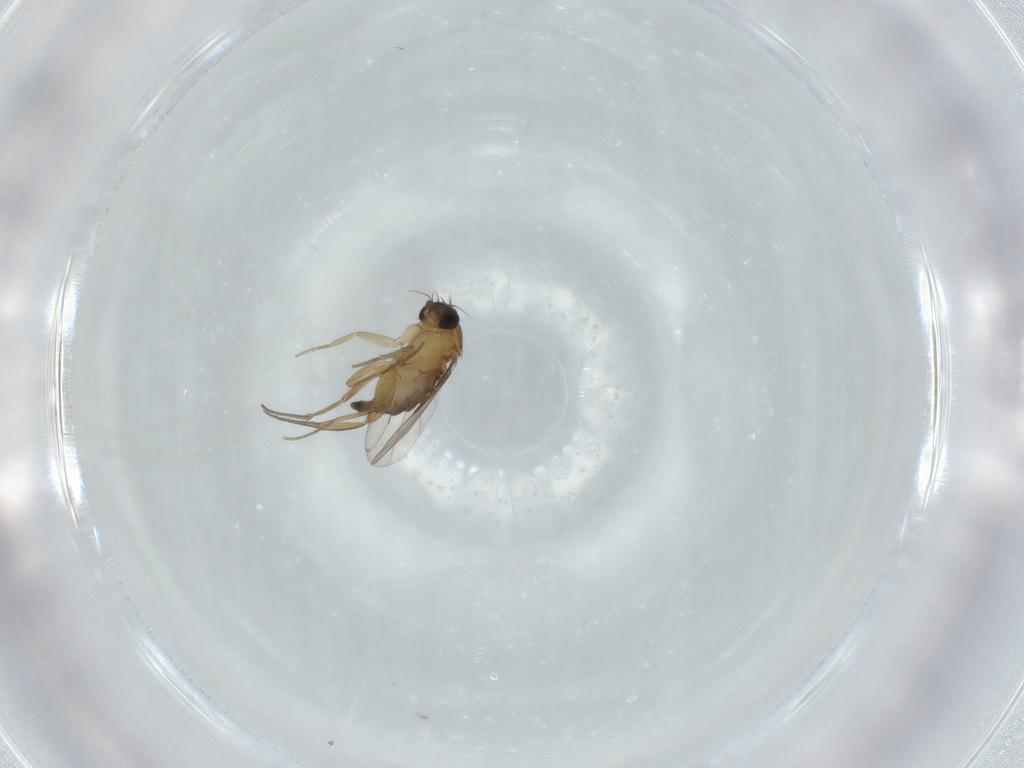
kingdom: Animalia
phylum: Arthropoda
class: Insecta
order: Diptera
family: Phoridae
